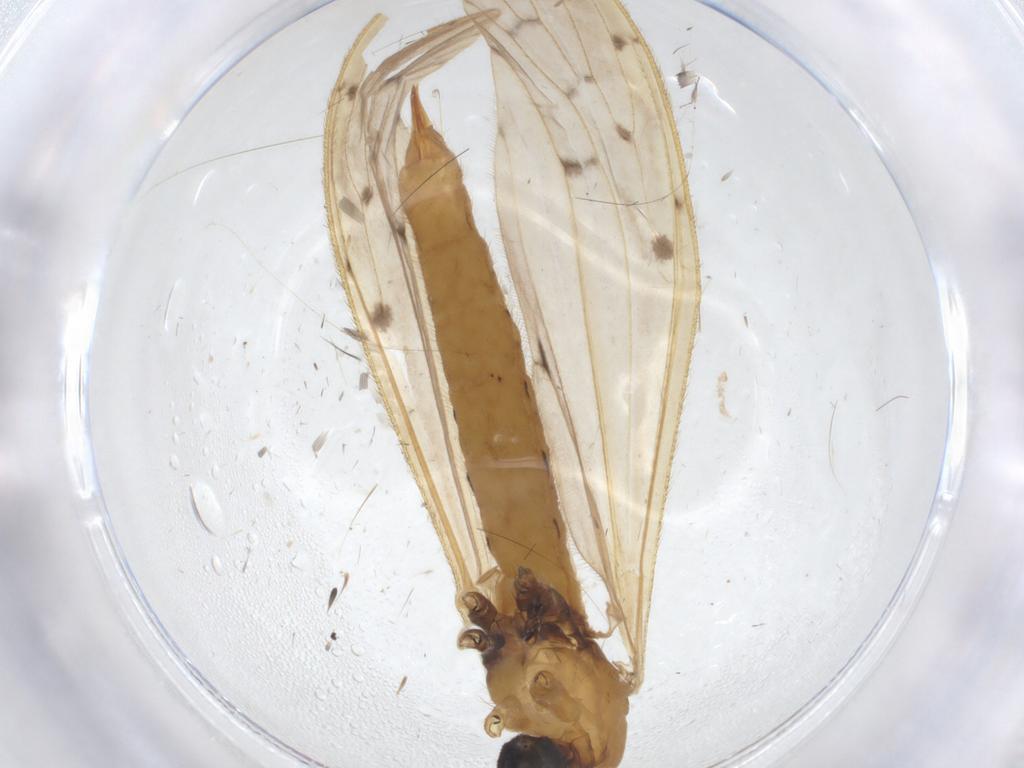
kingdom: Animalia
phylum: Arthropoda
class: Insecta
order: Diptera
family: Limoniidae
